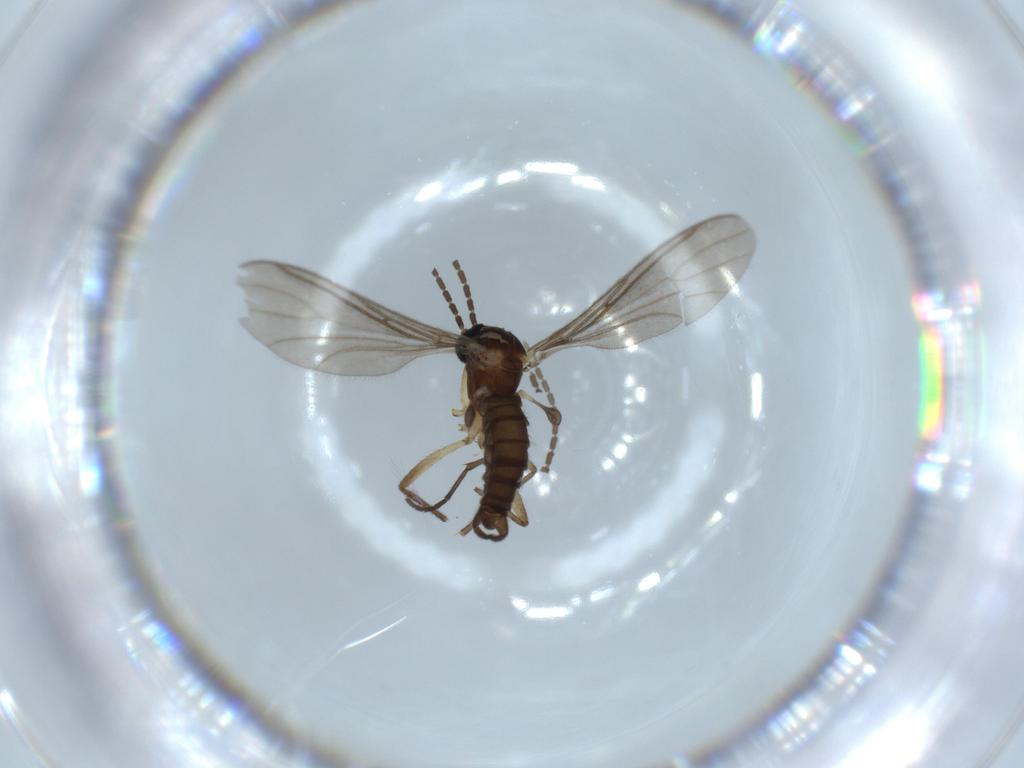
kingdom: Animalia
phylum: Arthropoda
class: Insecta
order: Diptera
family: Sciaridae
